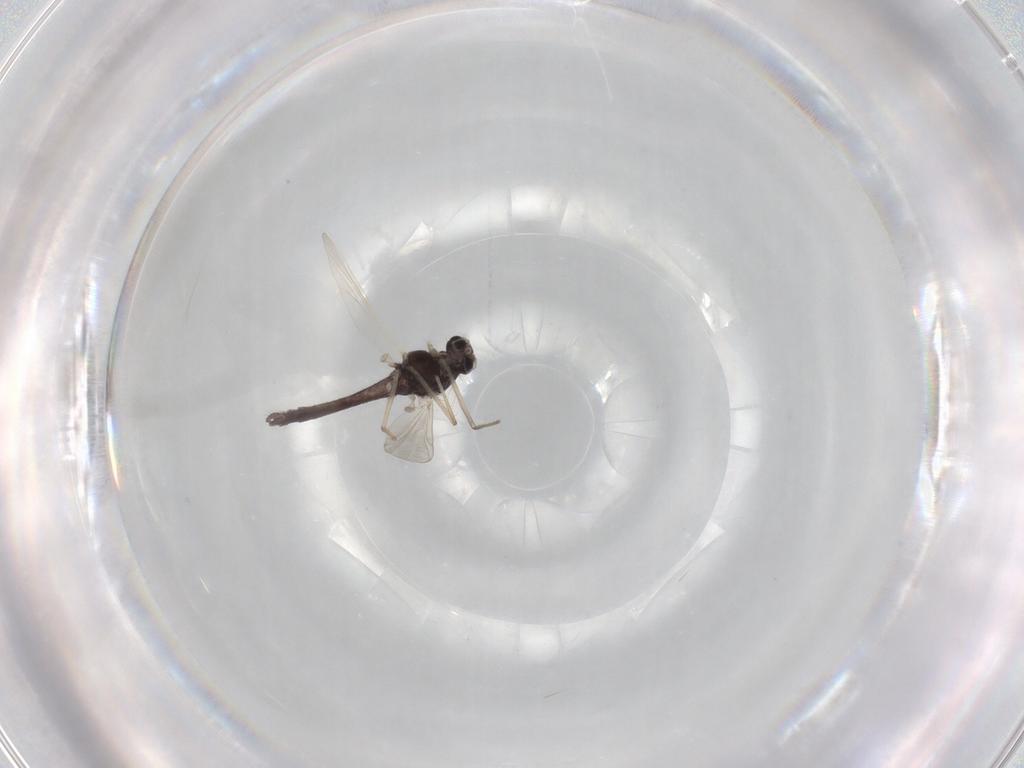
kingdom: Animalia
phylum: Arthropoda
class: Insecta
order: Diptera
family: Chironomidae
